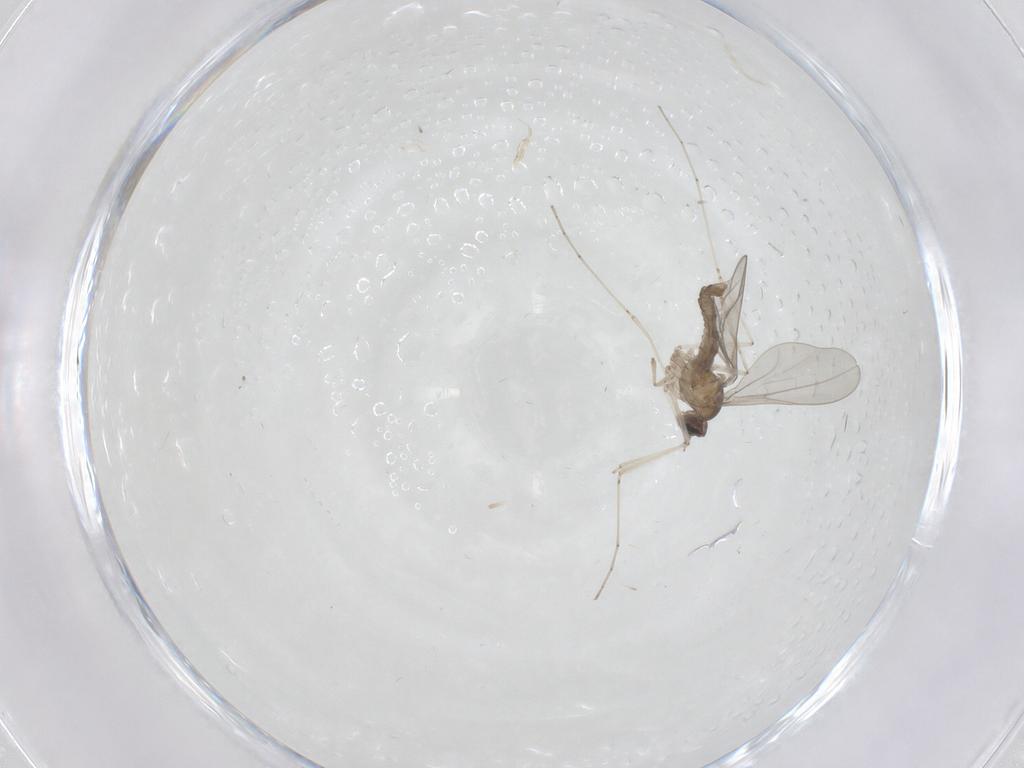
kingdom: Animalia
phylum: Arthropoda
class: Insecta
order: Diptera
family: Cecidomyiidae
